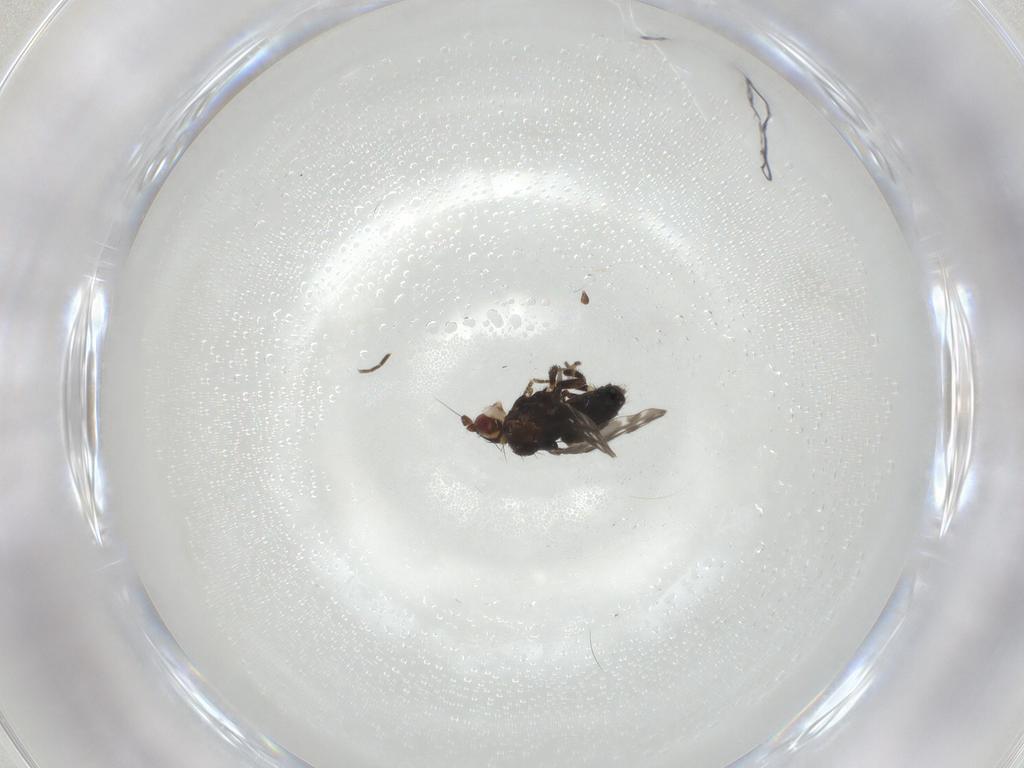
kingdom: Animalia
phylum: Arthropoda
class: Insecta
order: Diptera
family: Sphaeroceridae
